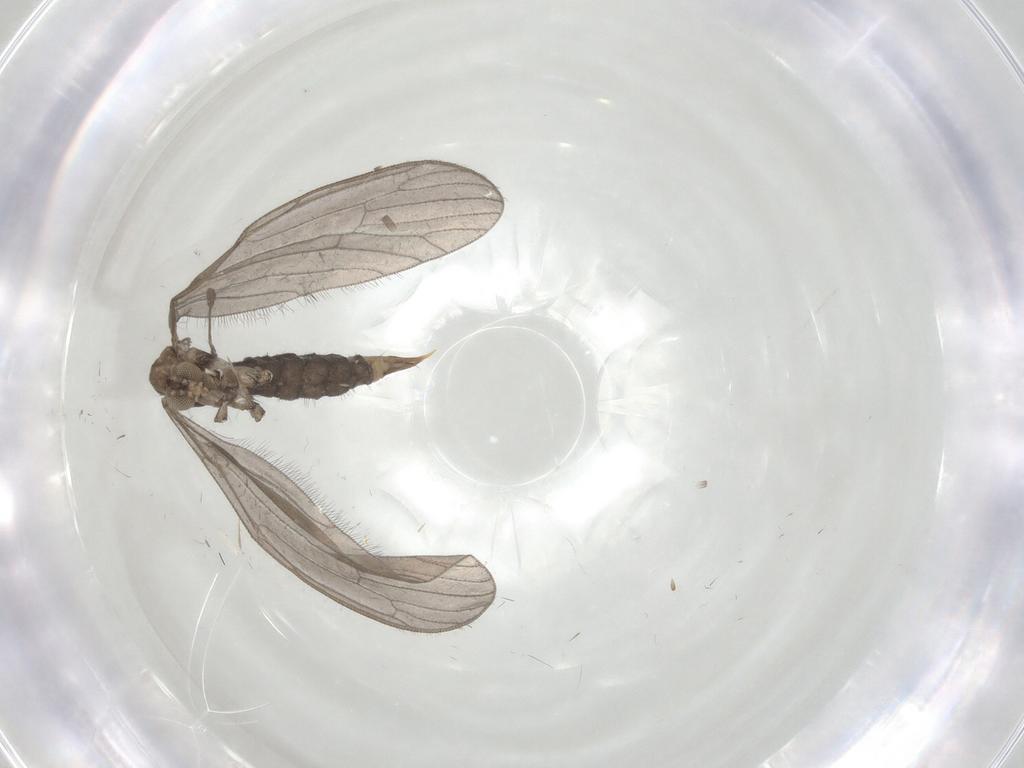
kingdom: Animalia
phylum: Arthropoda
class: Insecta
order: Diptera
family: Limoniidae
